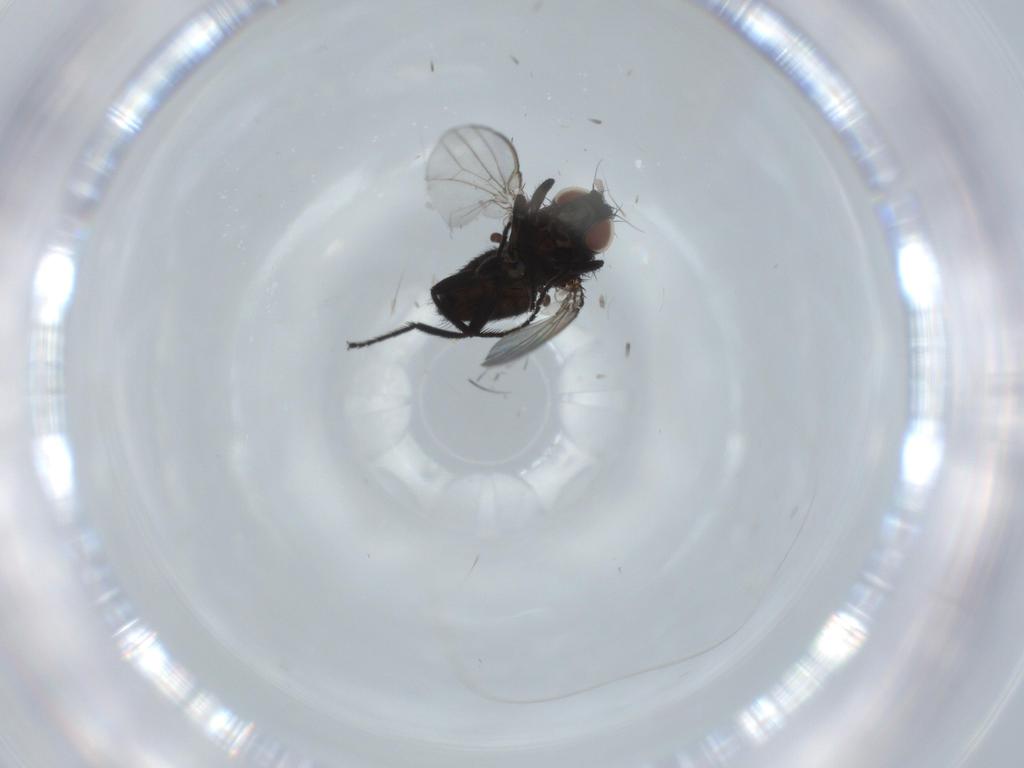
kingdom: Animalia
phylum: Arthropoda
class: Insecta
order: Diptera
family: Milichiidae
